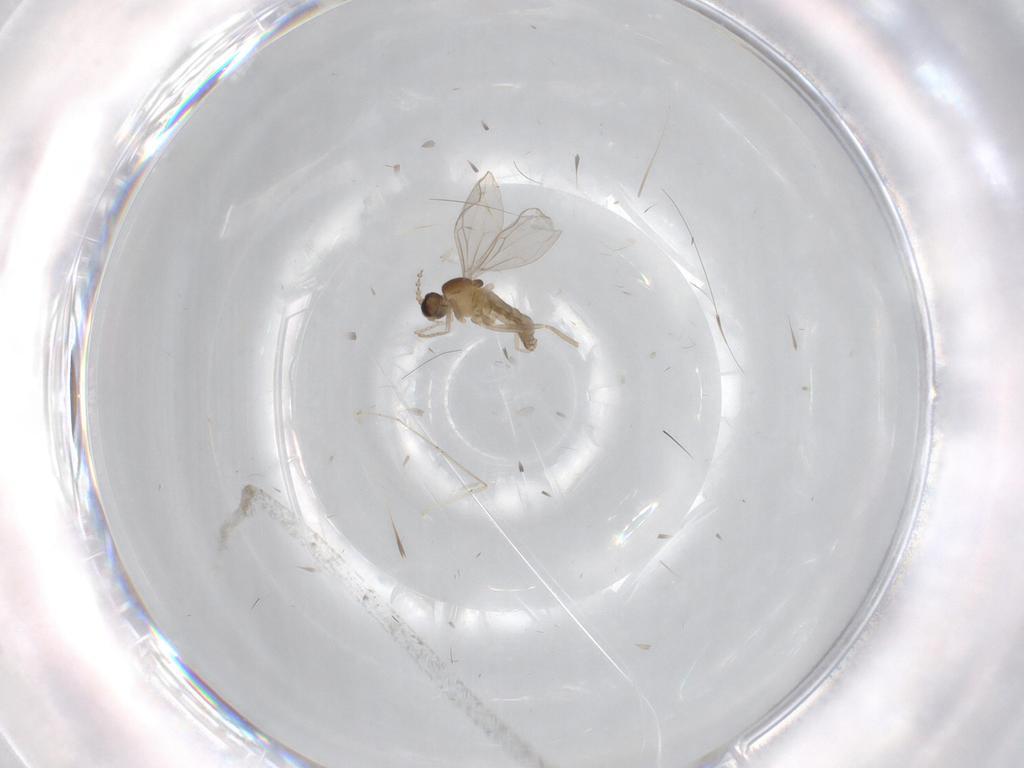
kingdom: Animalia
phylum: Arthropoda
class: Insecta
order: Diptera
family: Cecidomyiidae
